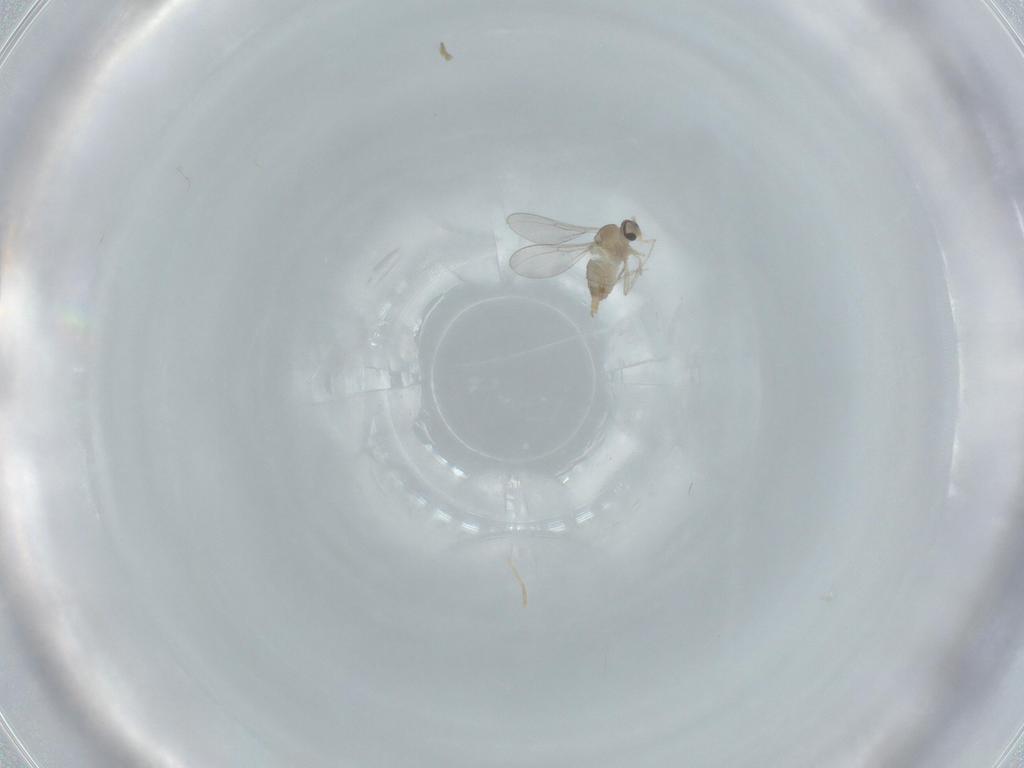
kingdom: Animalia
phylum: Arthropoda
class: Insecta
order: Diptera
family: Cecidomyiidae
